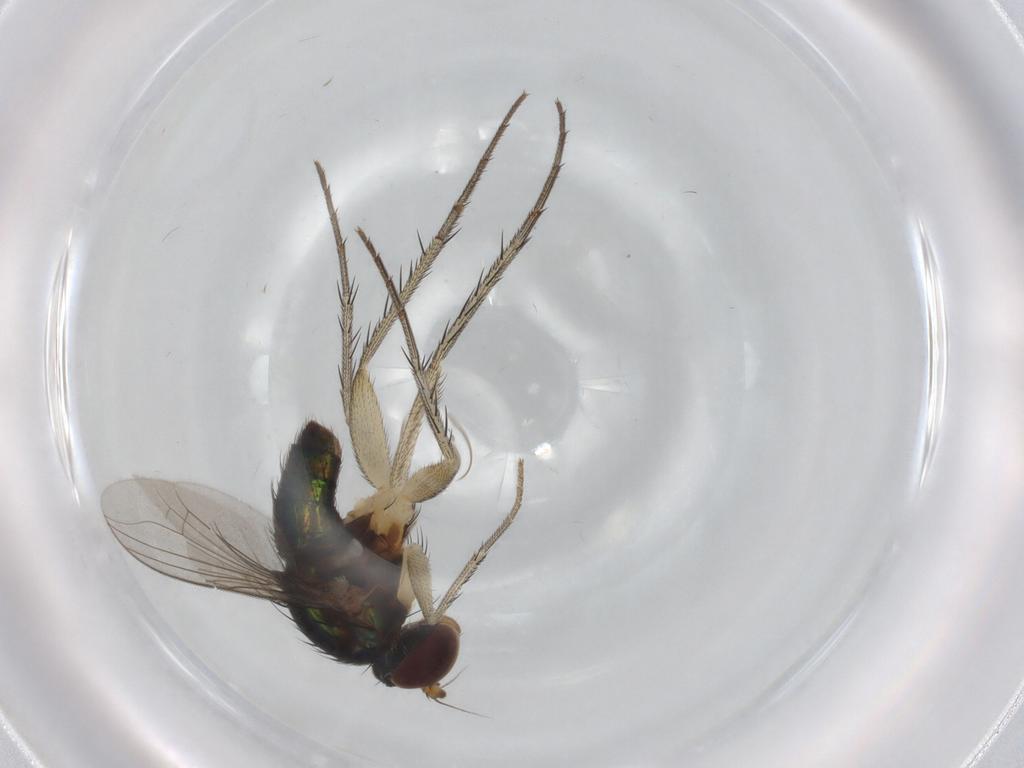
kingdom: Animalia
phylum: Arthropoda
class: Insecta
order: Diptera
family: Dolichopodidae
